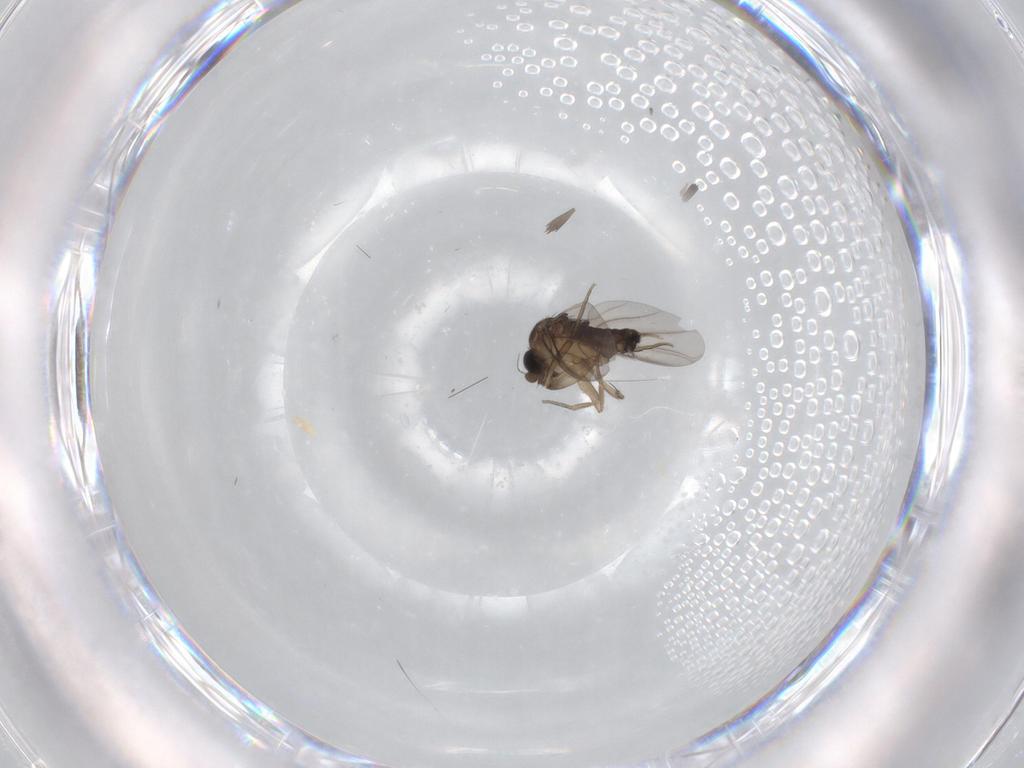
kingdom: Animalia
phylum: Arthropoda
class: Insecta
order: Diptera
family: Phoridae
